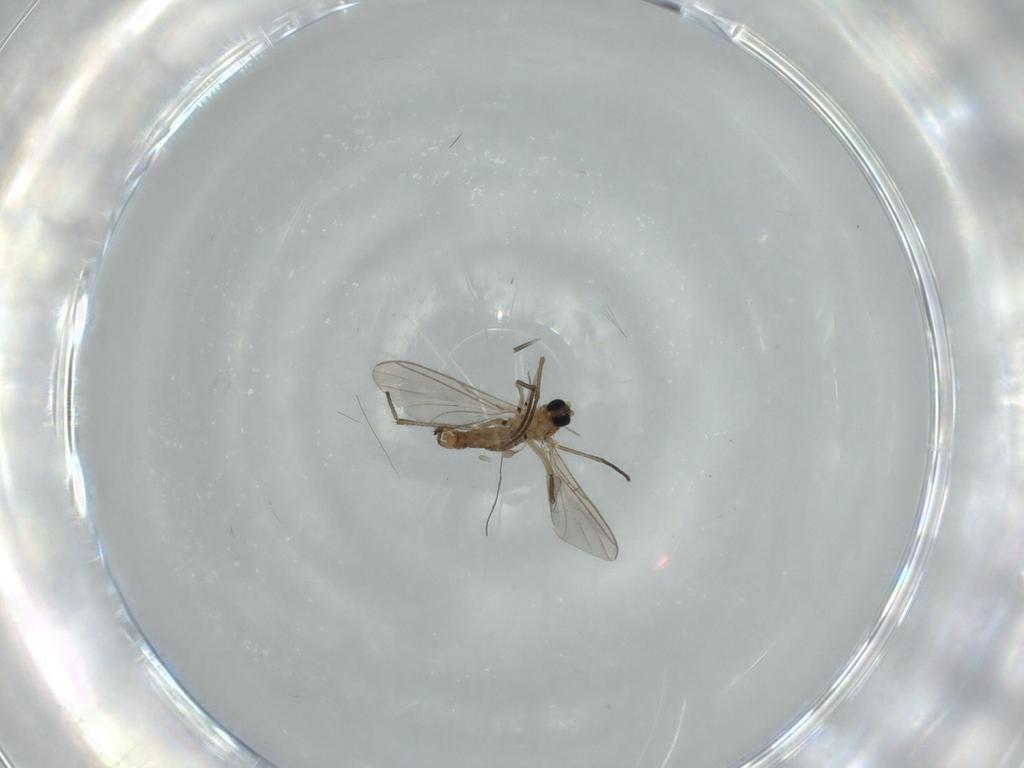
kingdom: Animalia
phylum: Arthropoda
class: Insecta
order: Diptera
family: Sciaridae
